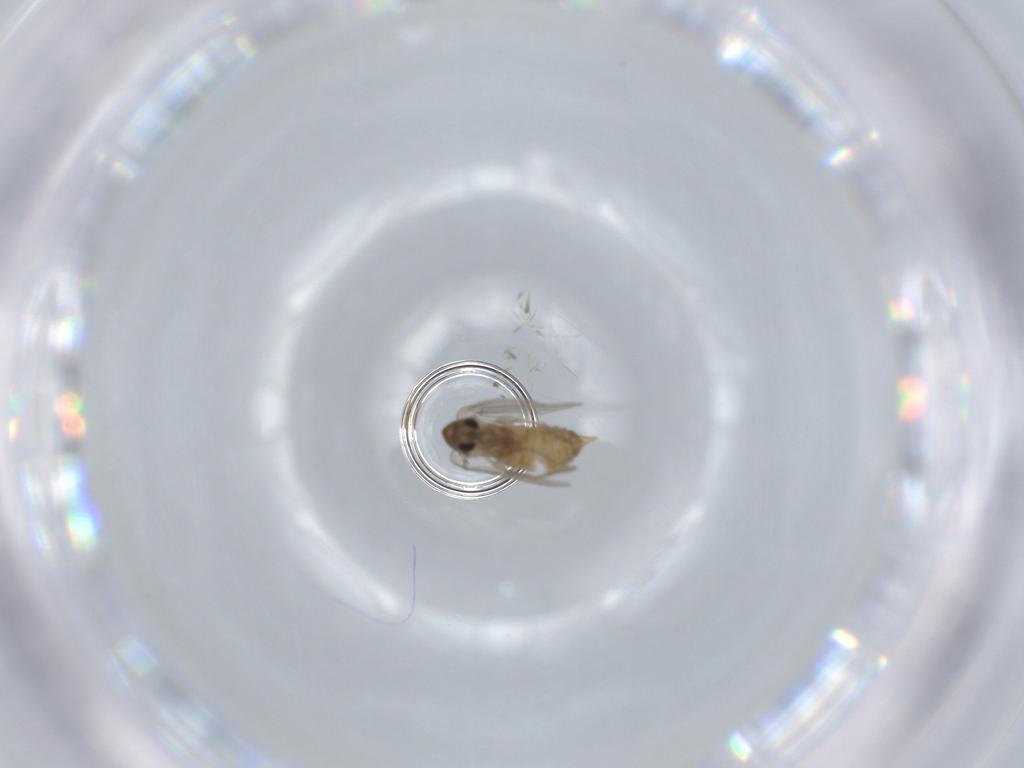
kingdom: Animalia
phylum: Arthropoda
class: Insecta
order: Diptera
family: Psychodidae
